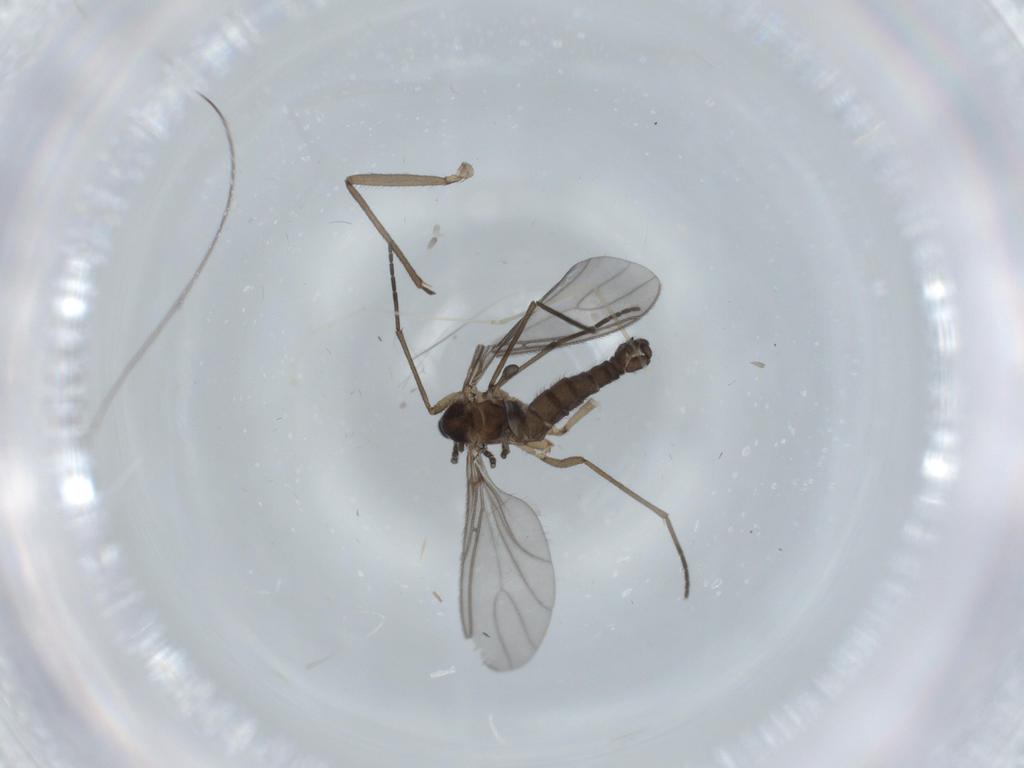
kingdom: Animalia
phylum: Arthropoda
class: Insecta
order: Diptera
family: Sciaridae
